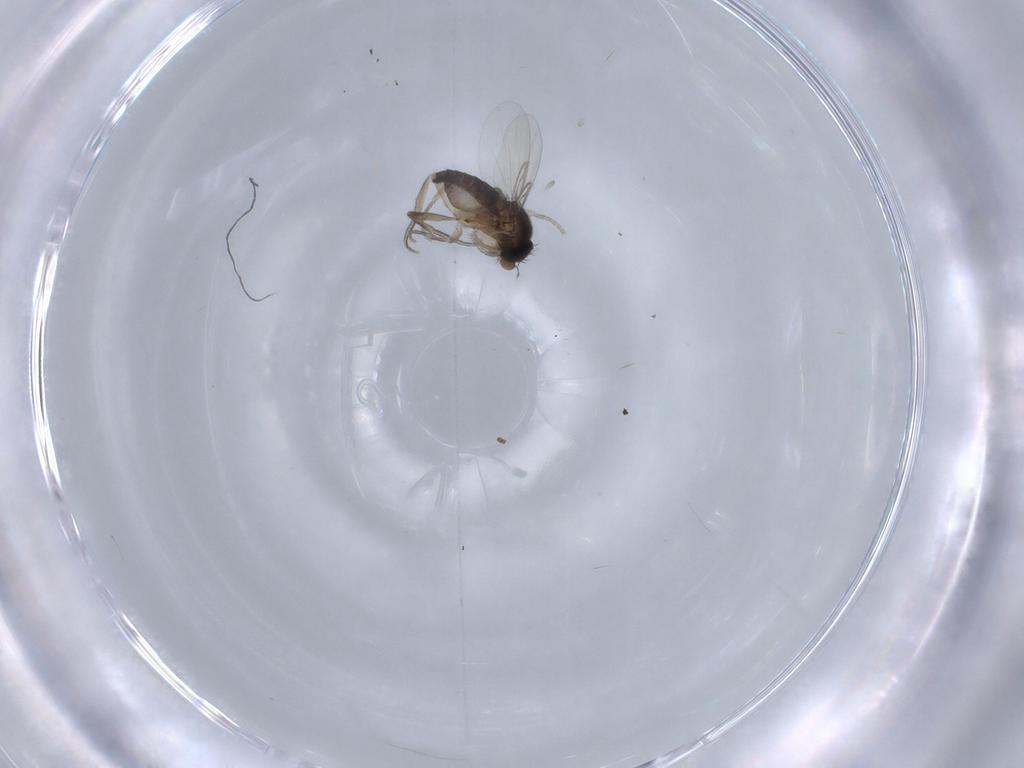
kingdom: Animalia
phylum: Arthropoda
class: Insecta
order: Diptera
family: Phoridae
